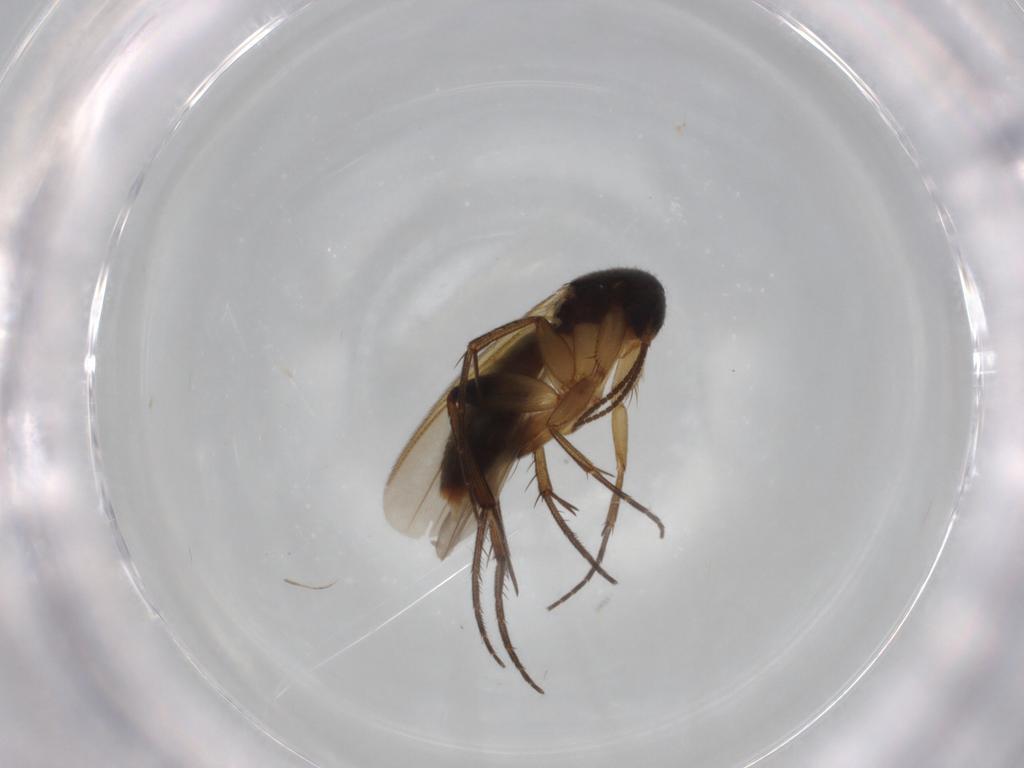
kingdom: Animalia
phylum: Arthropoda
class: Insecta
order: Diptera
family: Dolichopodidae
